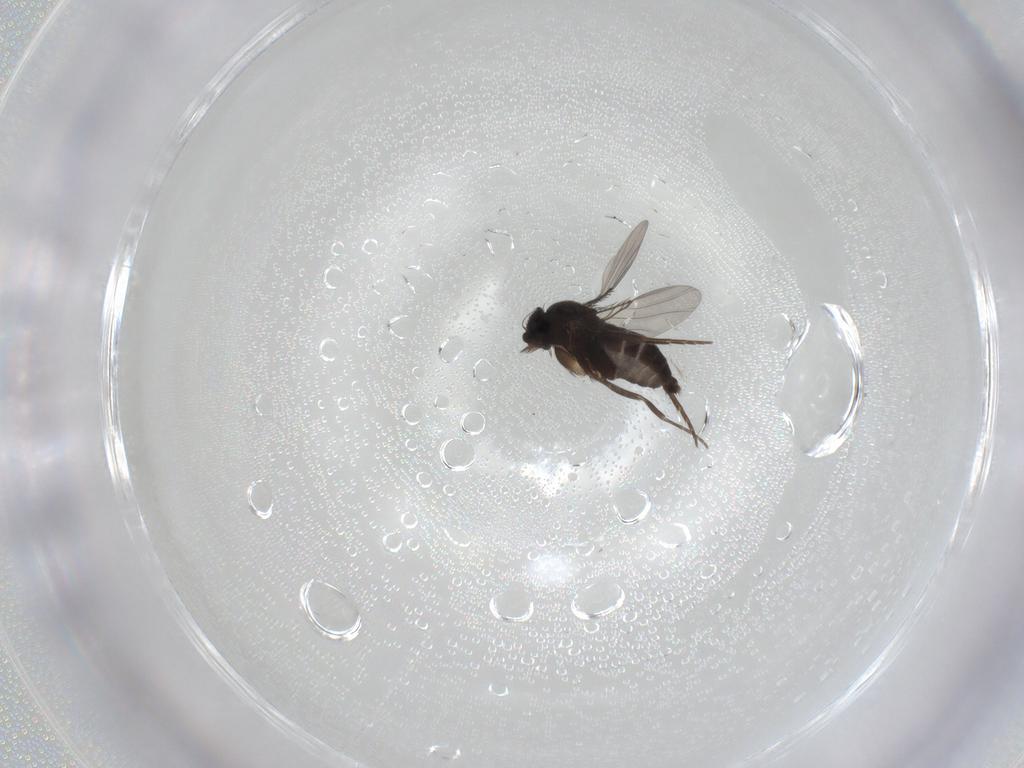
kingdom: Animalia
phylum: Arthropoda
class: Insecta
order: Diptera
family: Phoridae
